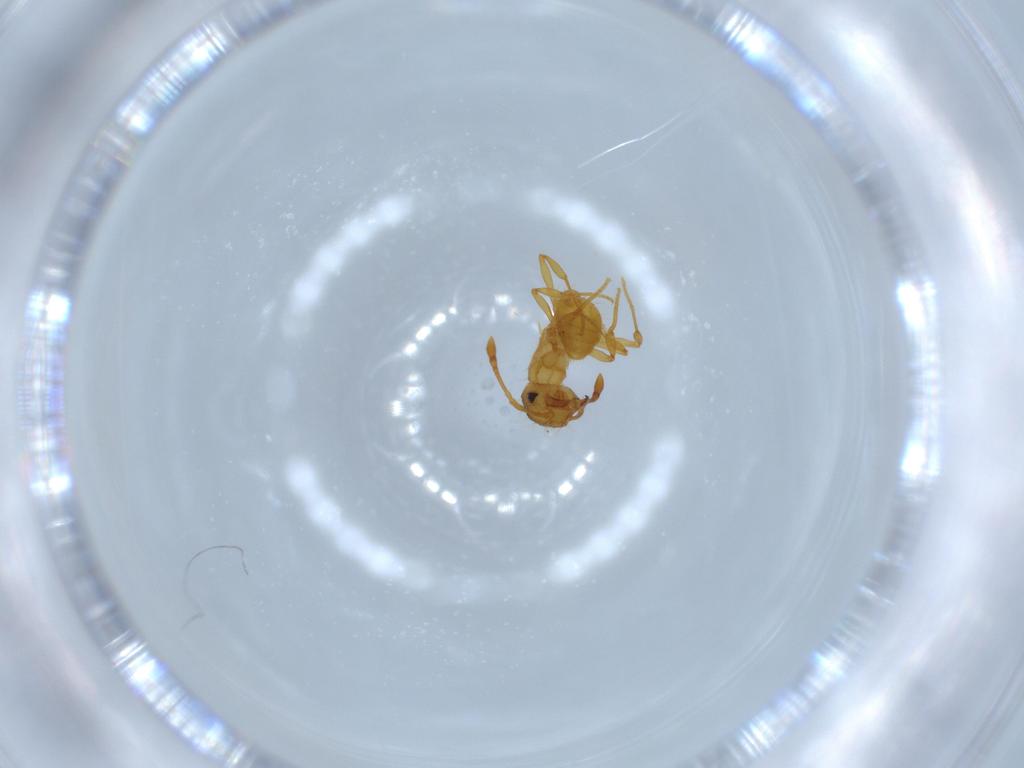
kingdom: Animalia
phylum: Arthropoda
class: Insecta
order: Hymenoptera
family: Formicidae
